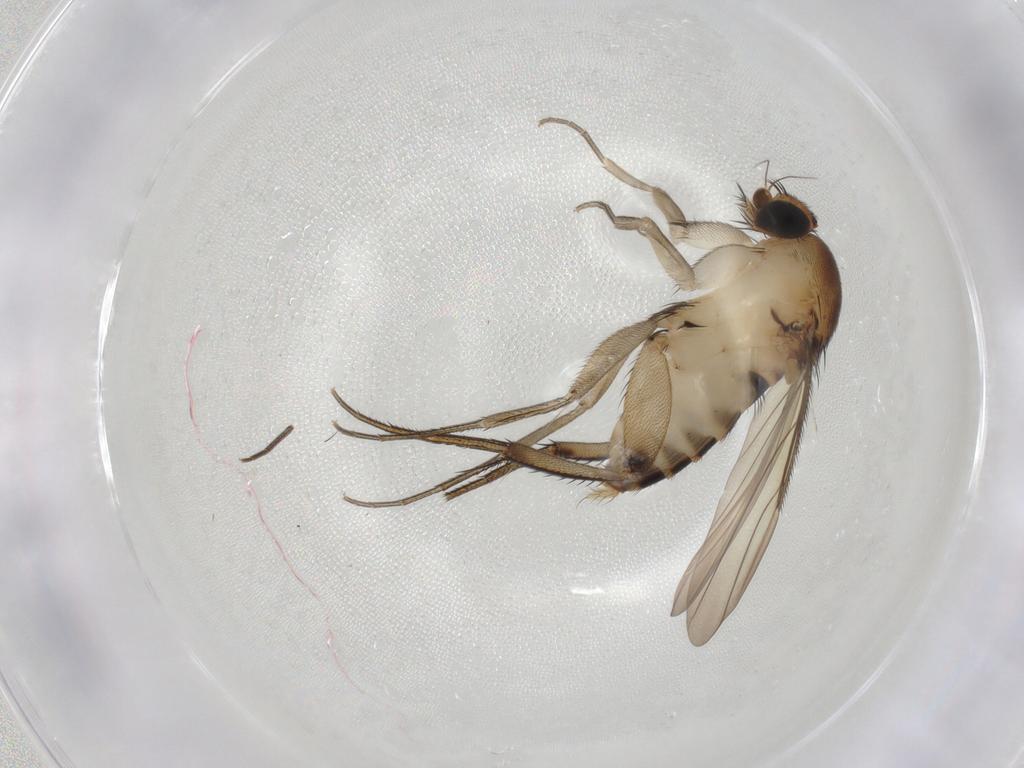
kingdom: Animalia
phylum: Arthropoda
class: Insecta
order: Diptera
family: Phoridae
